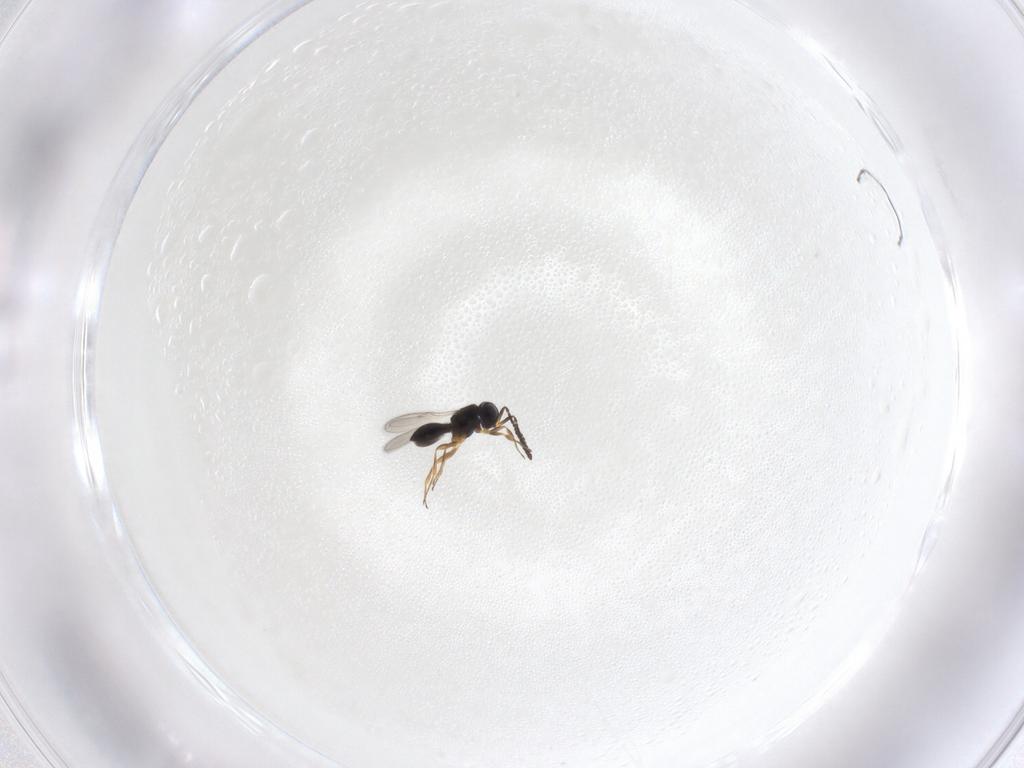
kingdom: Animalia
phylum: Arthropoda
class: Insecta
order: Hymenoptera
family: Scelionidae
